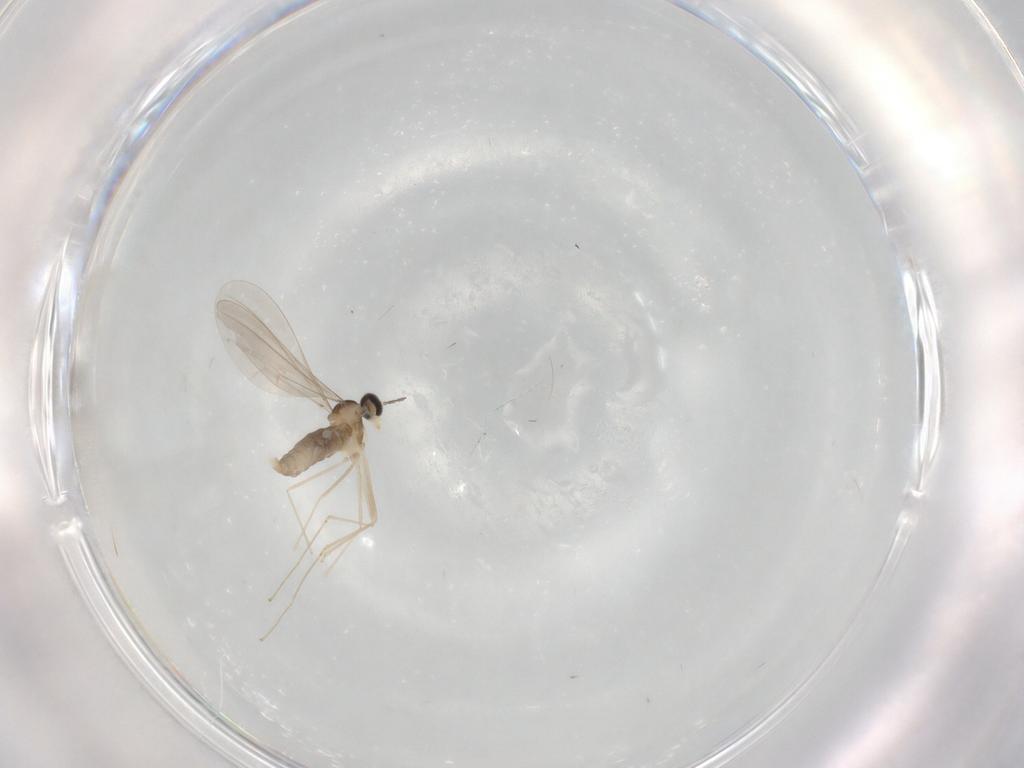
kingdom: Animalia
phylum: Arthropoda
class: Insecta
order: Diptera
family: Cecidomyiidae
